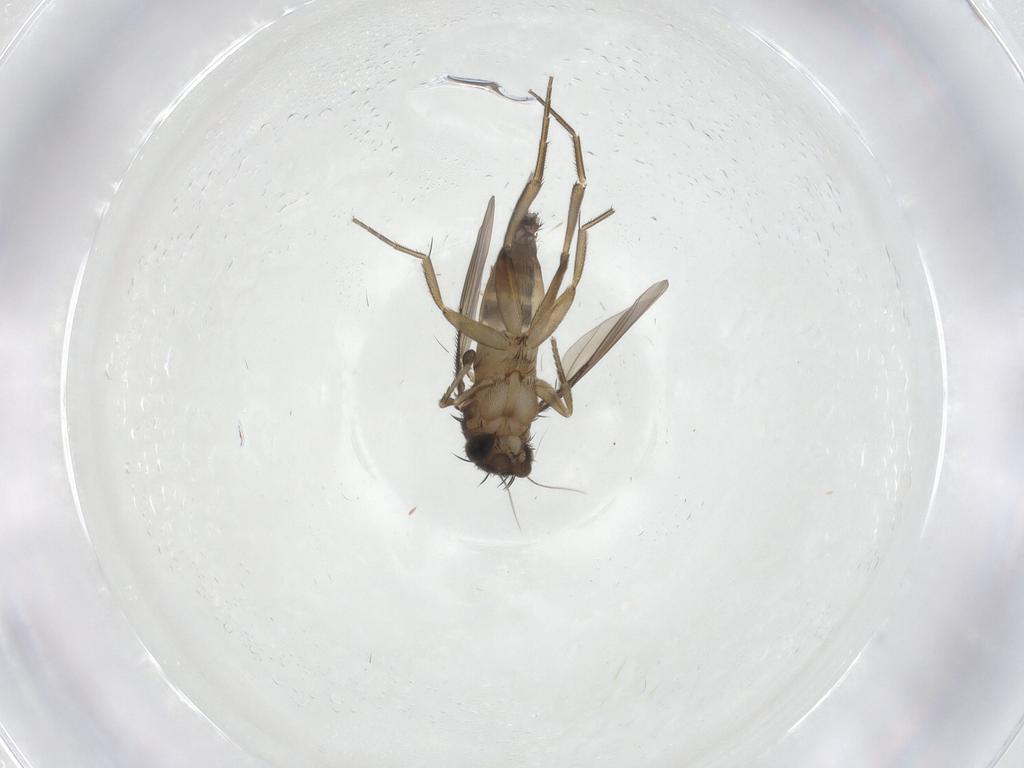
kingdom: Animalia
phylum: Arthropoda
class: Insecta
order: Diptera
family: Phoridae
